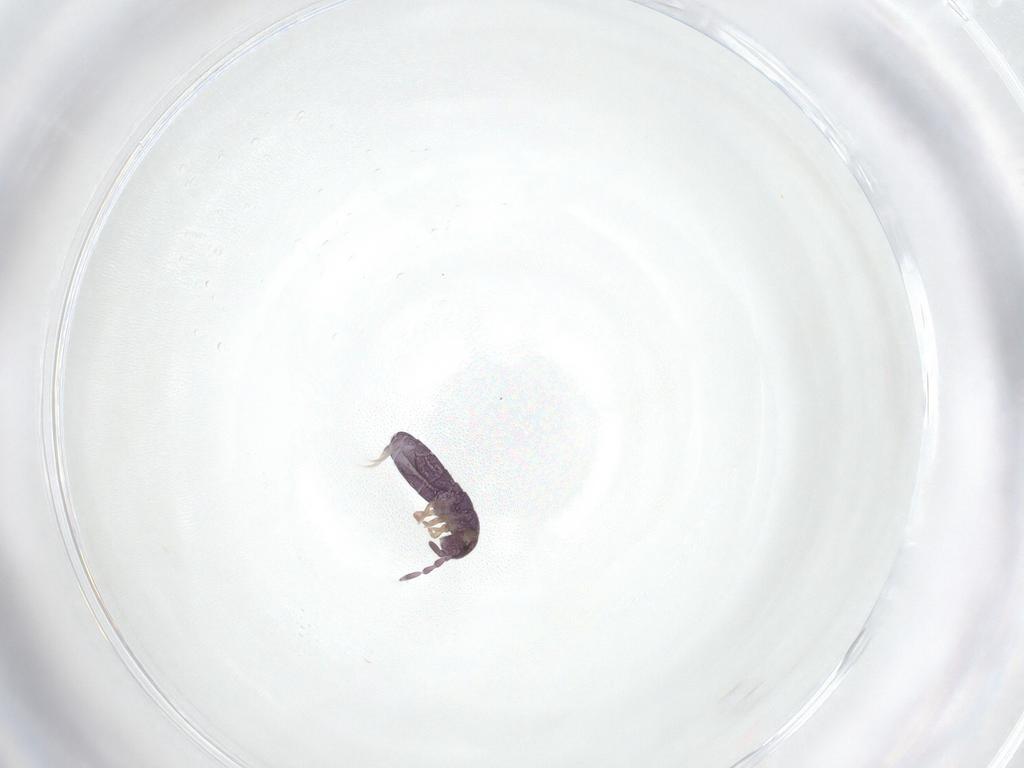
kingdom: Animalia
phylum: Arthropoda
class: Collembola
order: Entomobryomorpha
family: Isotomidae
